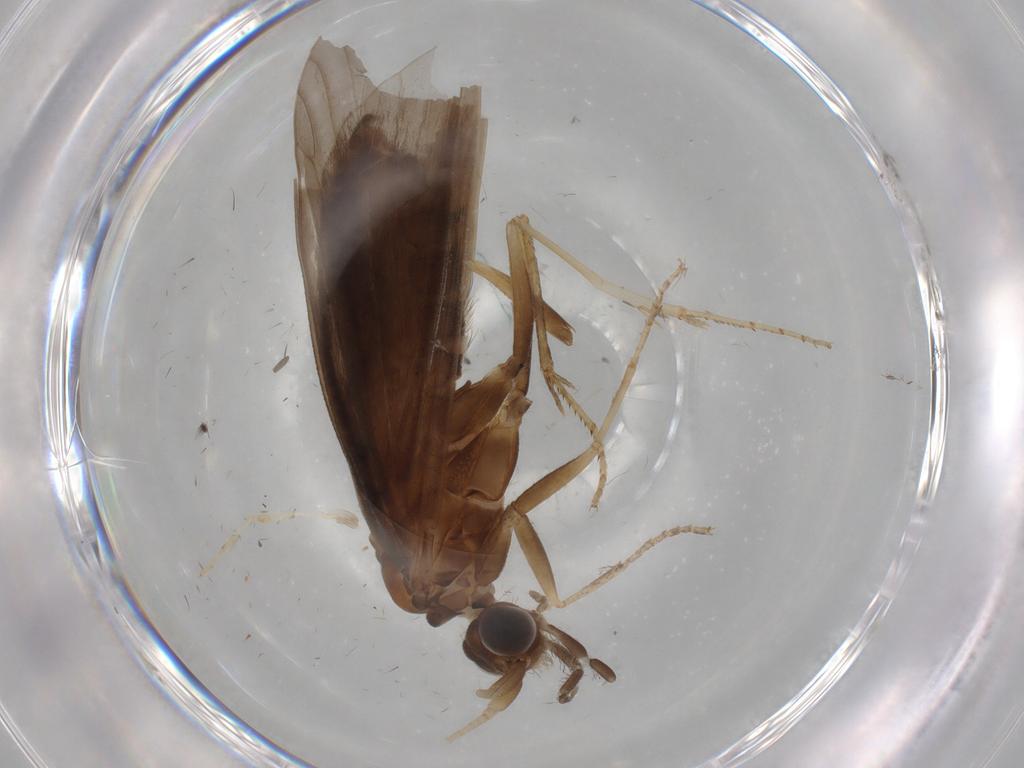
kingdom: Animalia
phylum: Arthropoda
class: Insecta
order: Trichoptera
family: Helicopsychidae
